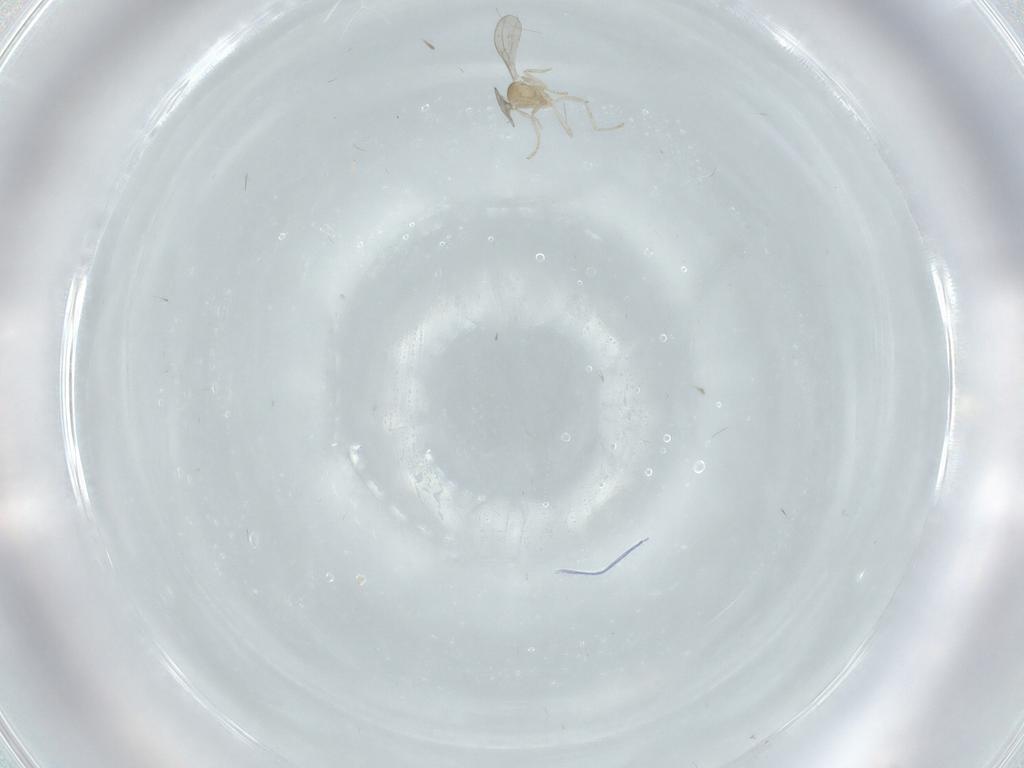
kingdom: Animalia
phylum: Arthropoda
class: Insecta
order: Diptera
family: Cecidomyiidae
